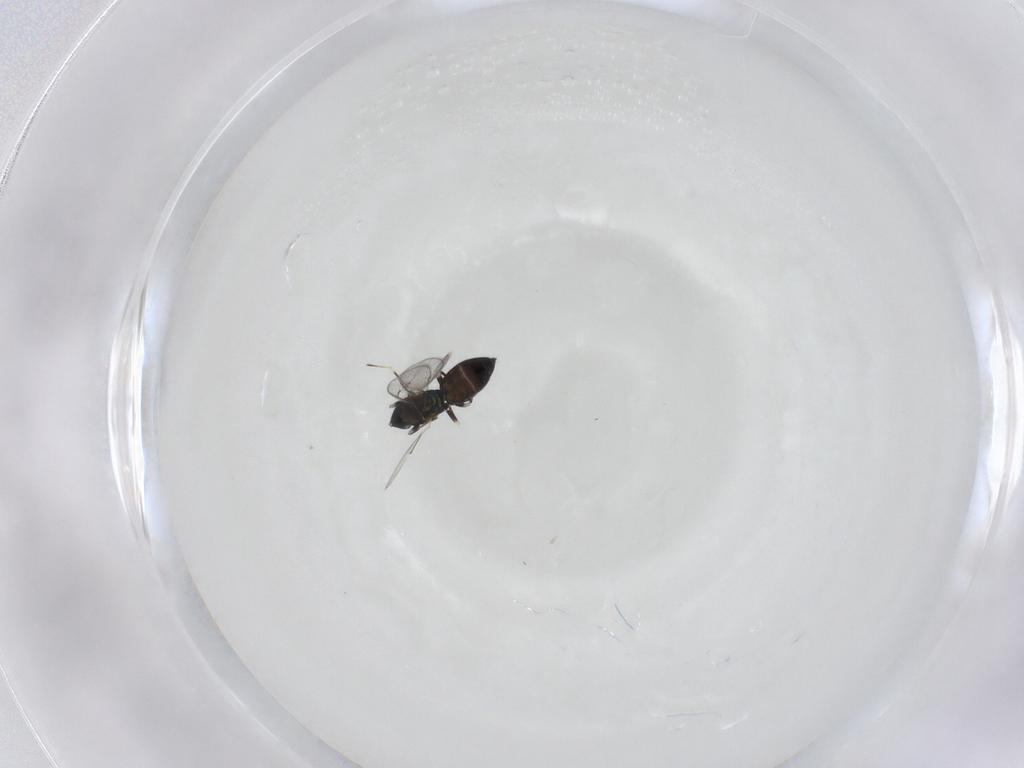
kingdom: Animalia
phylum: Arthropoda
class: Insecta
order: Hymenoptera
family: Eulophidae
